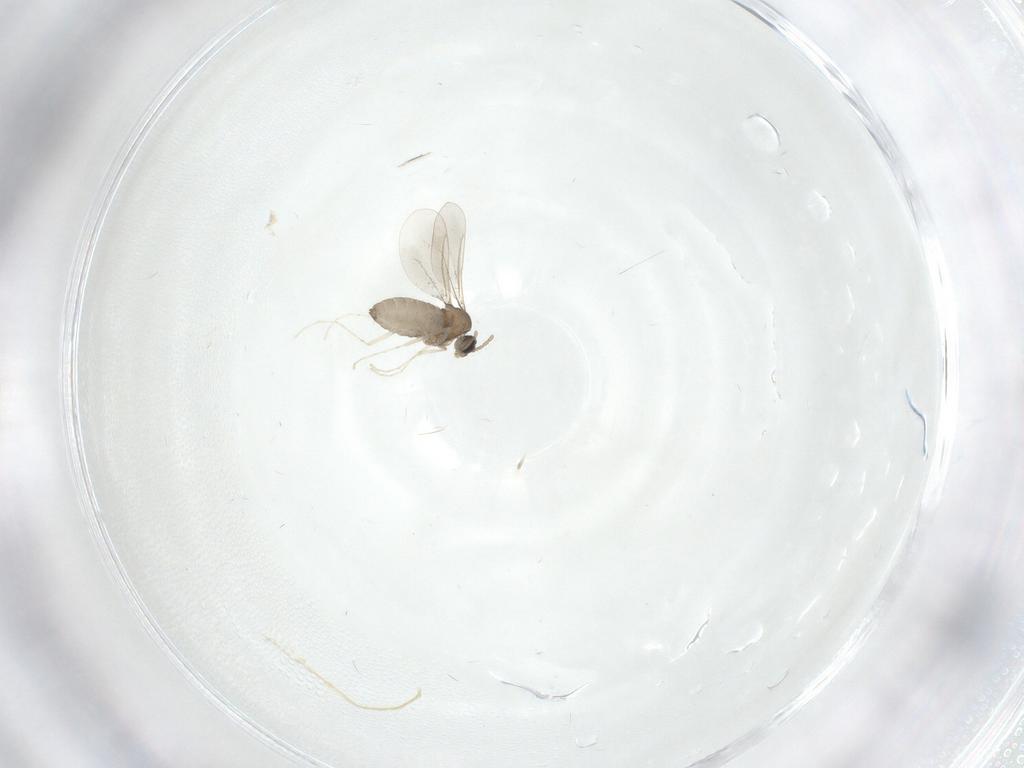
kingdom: Animalia
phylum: Arthropoda
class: Insecta
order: Diptera
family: Cecidomyiidae
